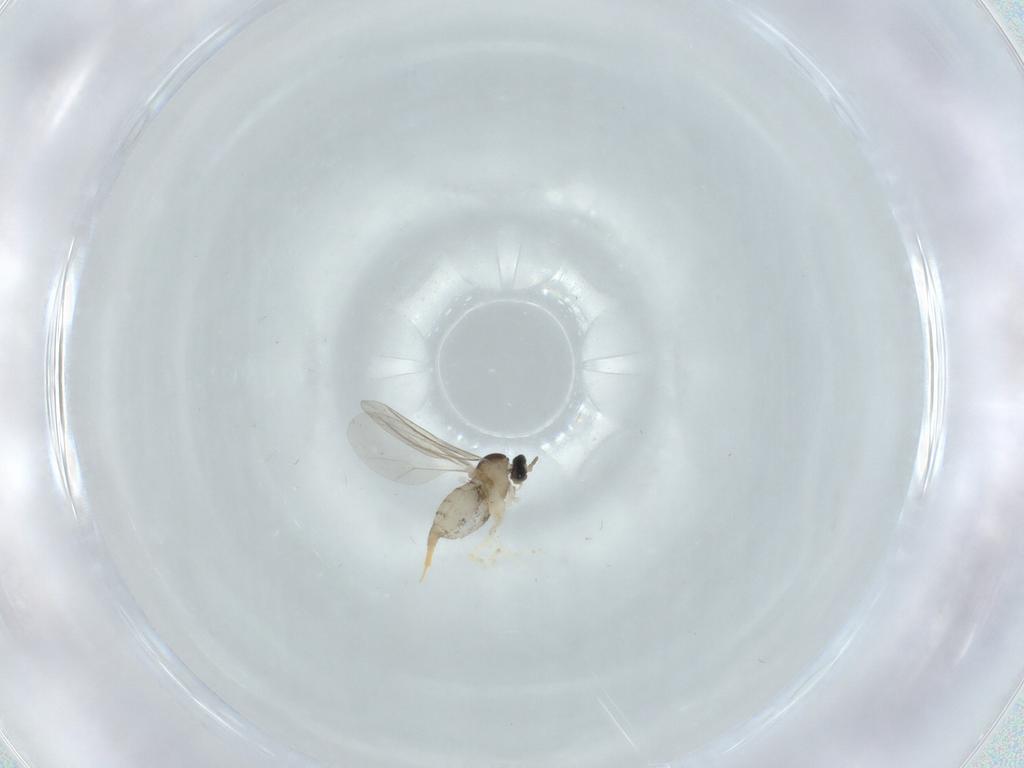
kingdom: Animalia
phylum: Arthropoda
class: Insecta
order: Diptera
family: Cecidomyiidae
